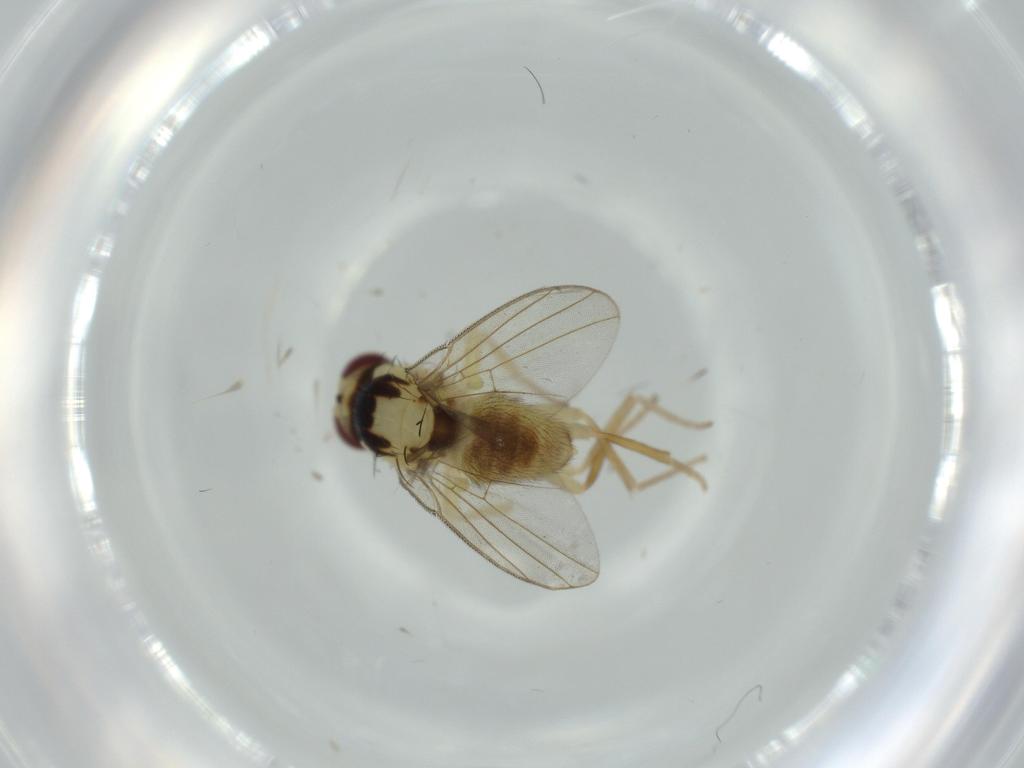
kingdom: Animalia
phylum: Arthropoda
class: Insecta
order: Diptera
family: Agromyzidae
